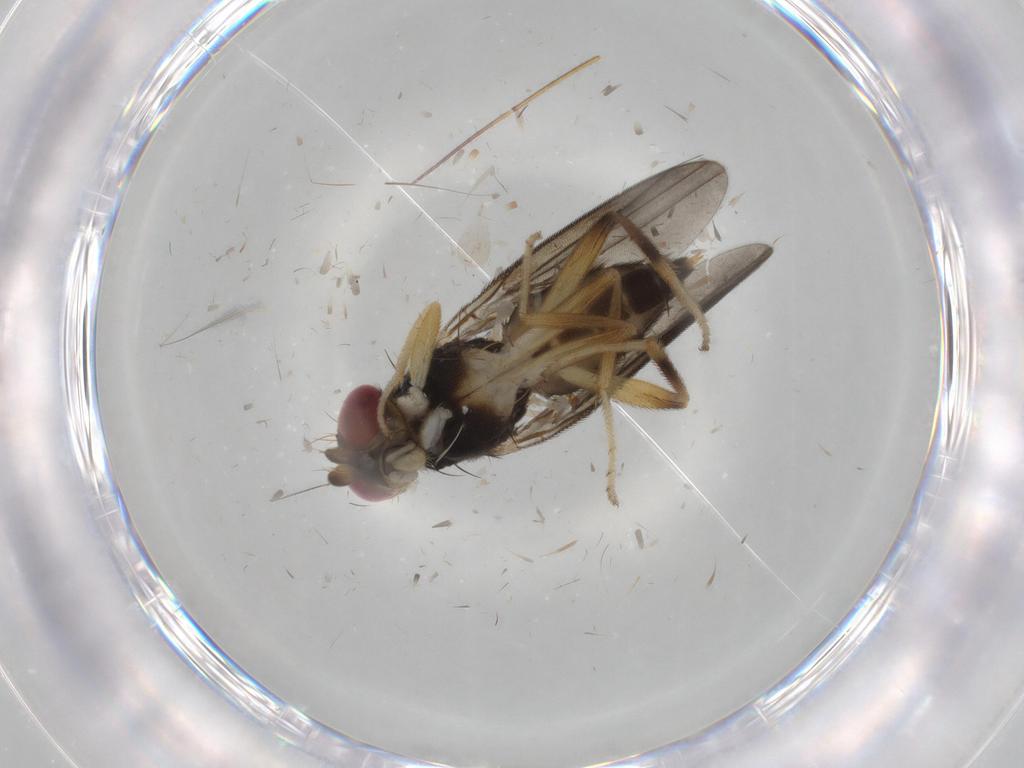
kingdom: Animalia
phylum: Arthropoda
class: Insecta
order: Diptera
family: Clusiidae
